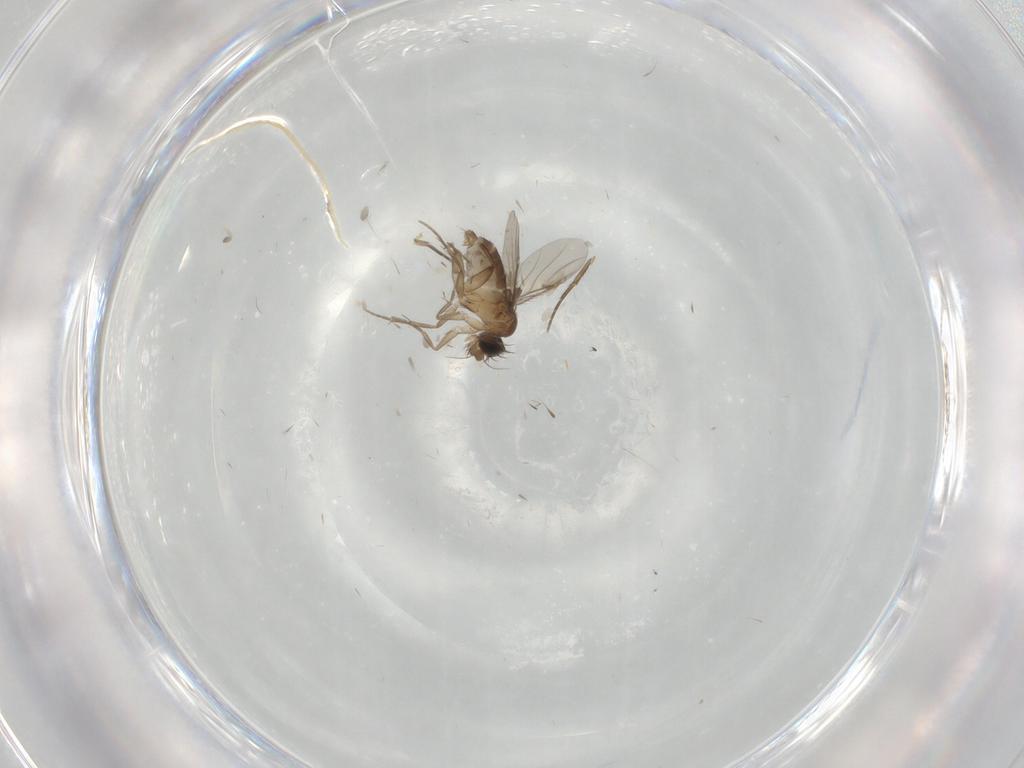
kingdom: Animalia
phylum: Arthropoda
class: Insecta
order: Diptera
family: Phoridae
